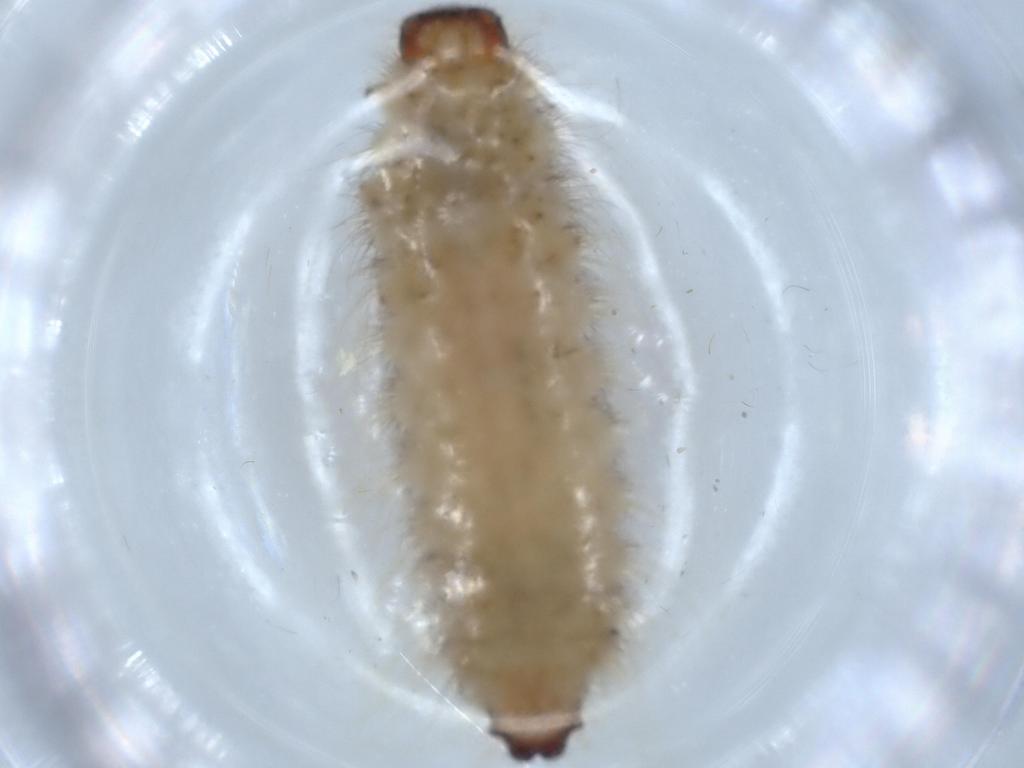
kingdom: Animalia
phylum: Arthropoda
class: Insecta
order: Diptera
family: Chironomidae
